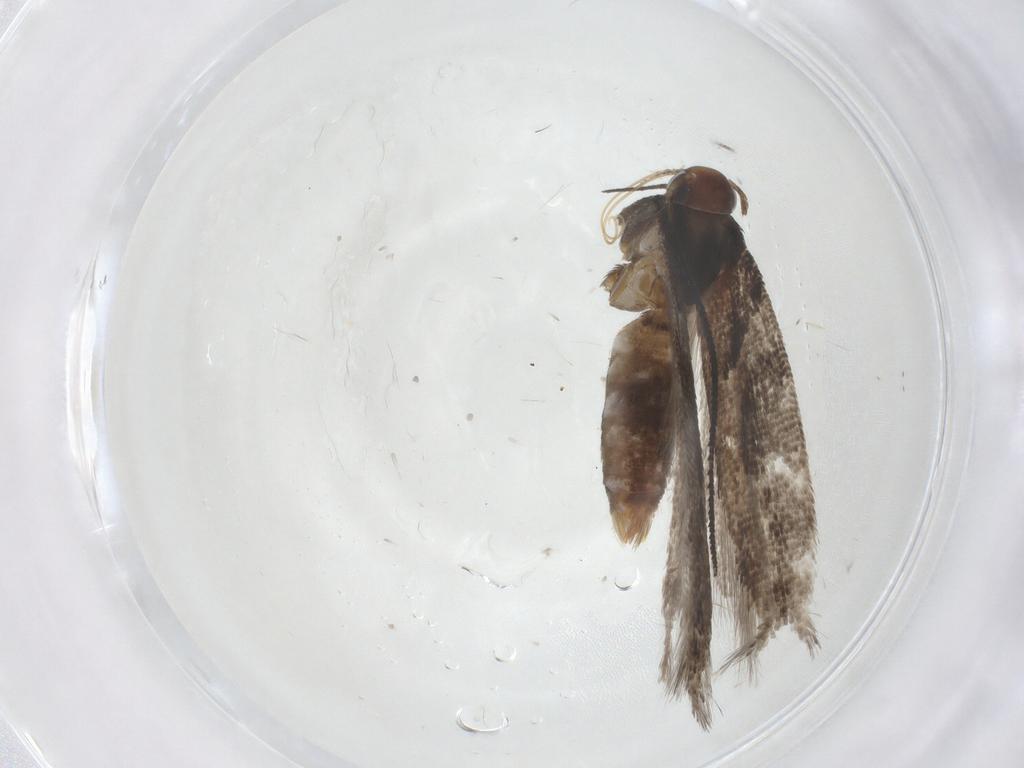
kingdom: Animalia
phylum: Arthropoda
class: Insecta
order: Lepidoptera
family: Gelechiidae
